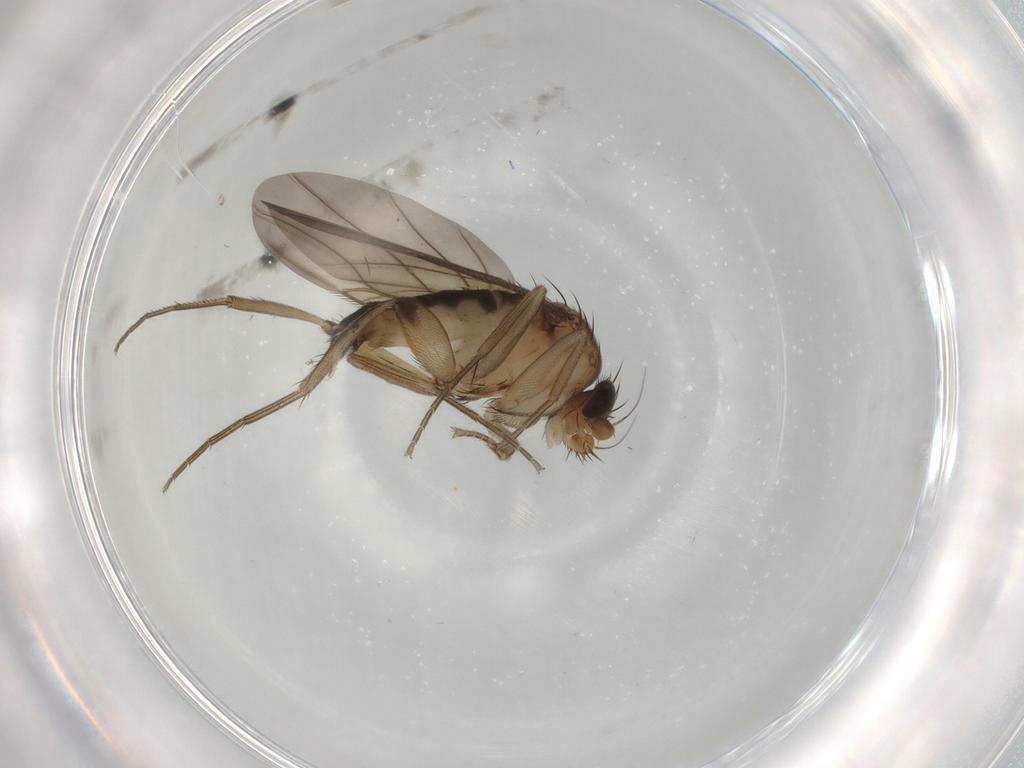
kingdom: Animalia
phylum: Arthropoda
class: Insecta
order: Diptera
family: Phoridae
